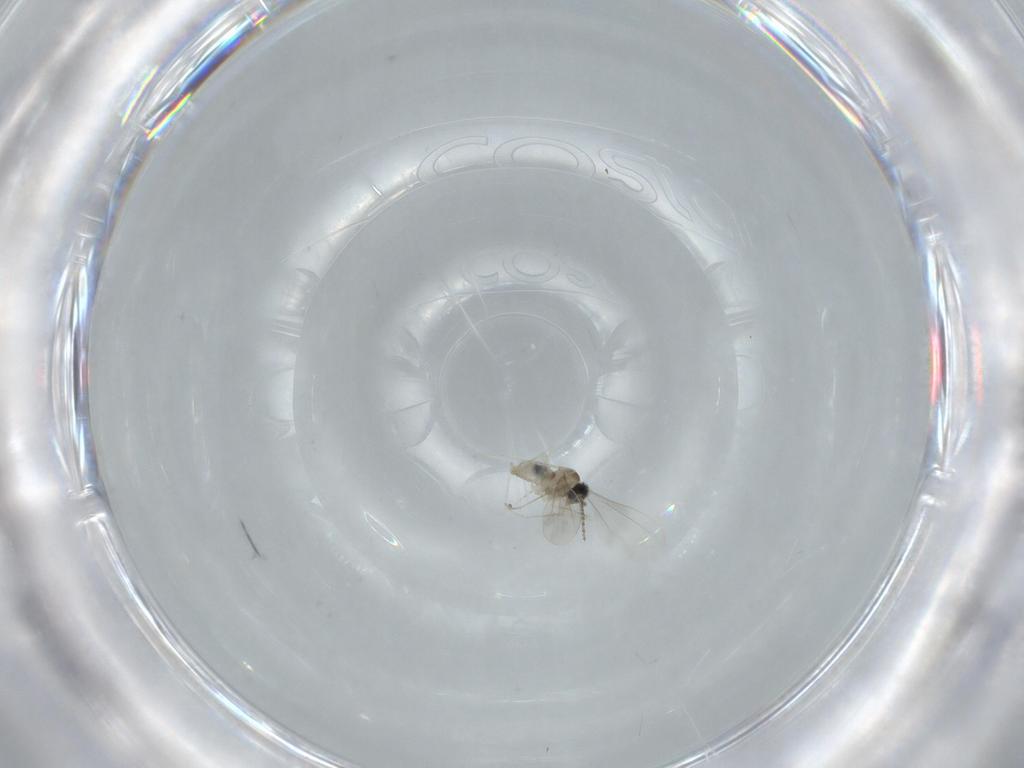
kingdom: Animalia
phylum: Arthropoda
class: Insecta
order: Diptera
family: Cecidomyiidae
